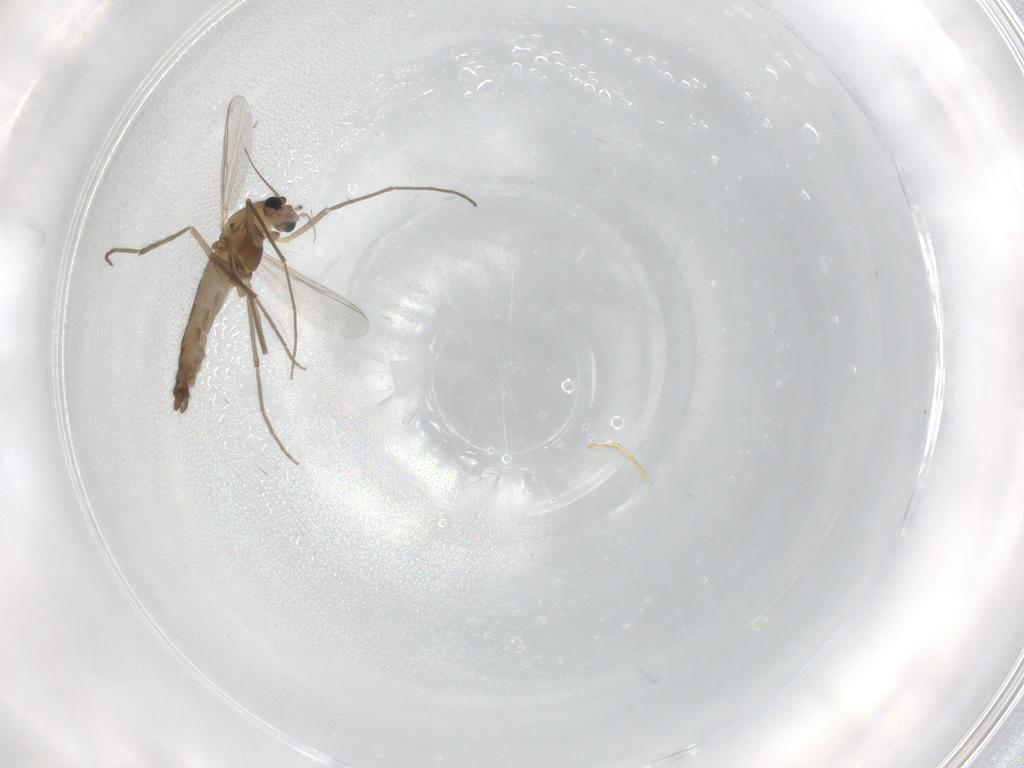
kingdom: Animalia
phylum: Arthropoda
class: Insecta
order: Diptera
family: Chironomidae
